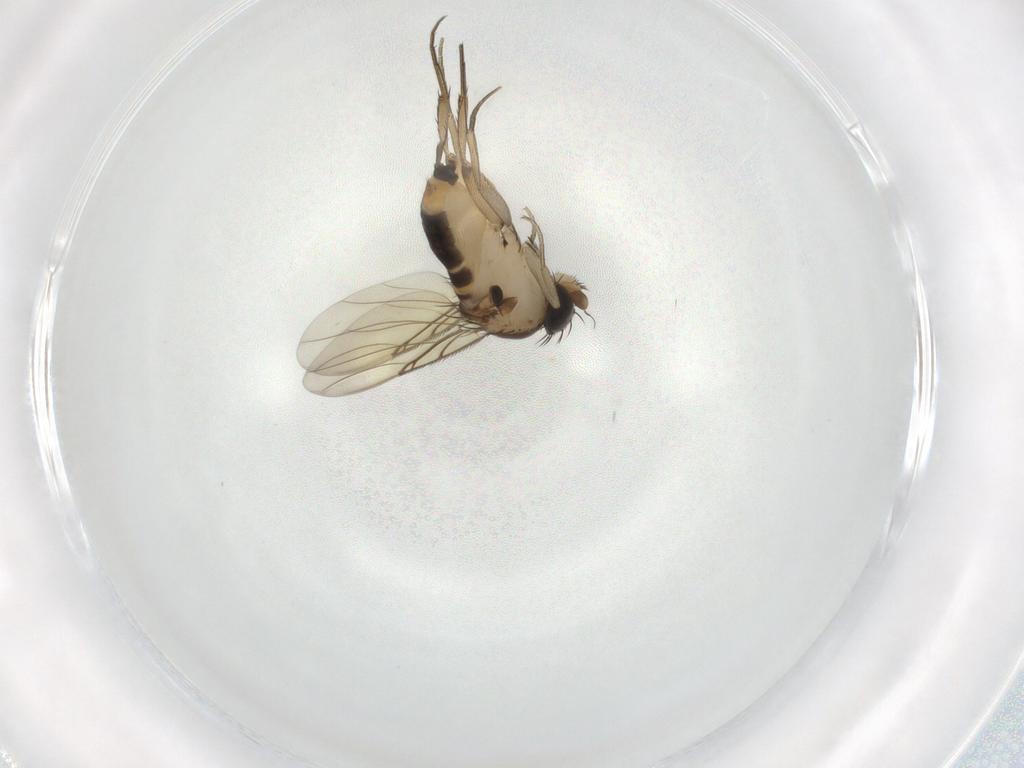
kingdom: Animalia
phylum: Arthropoda
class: Insecta
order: Diptera
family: Phoridae
